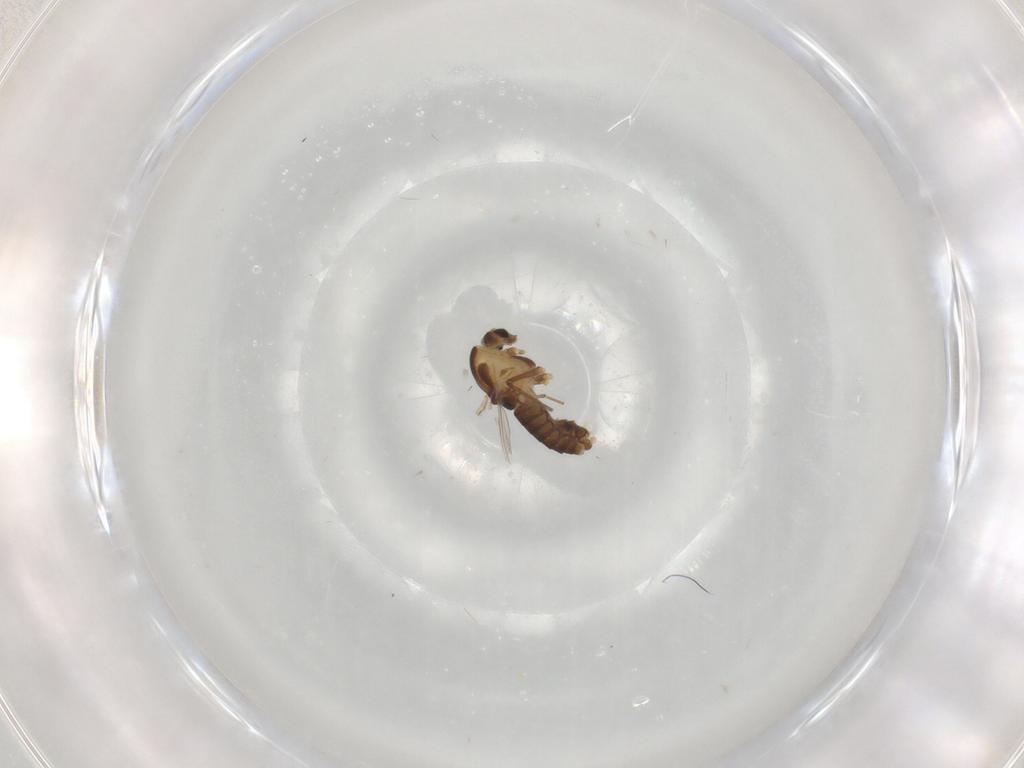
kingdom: Animalia
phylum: Arthropoda
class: Insecta
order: Diptera
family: Chironomidae
